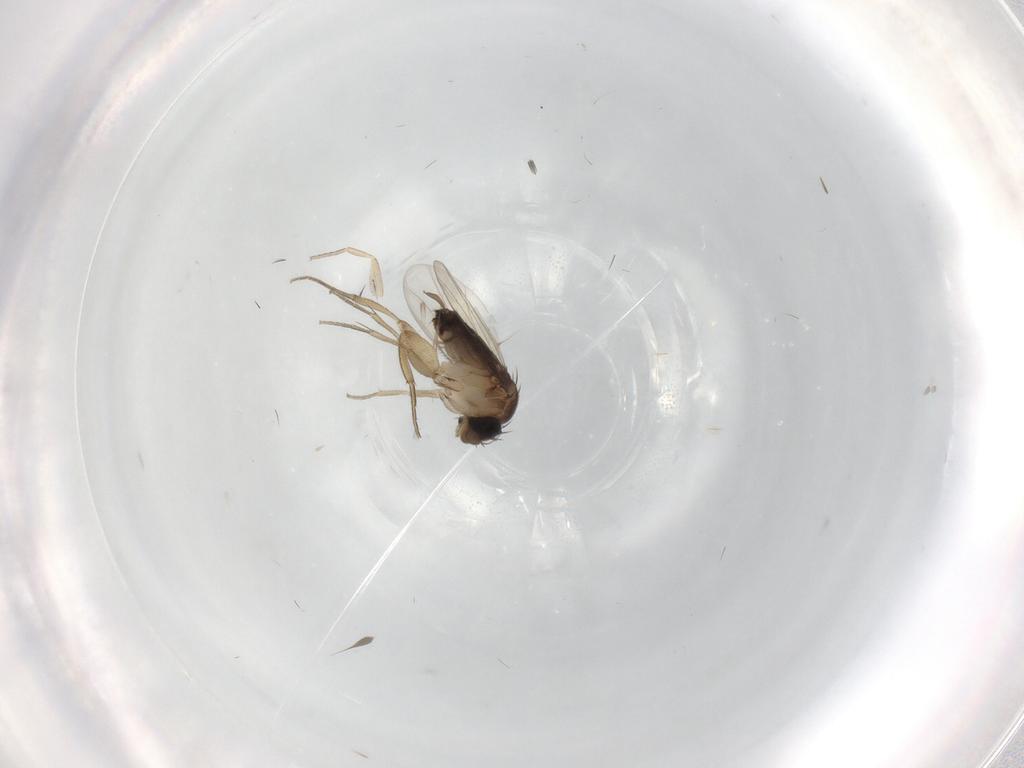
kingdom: Animalia
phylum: Arthropoda
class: Insecta
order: Diptera
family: Sciaridae
